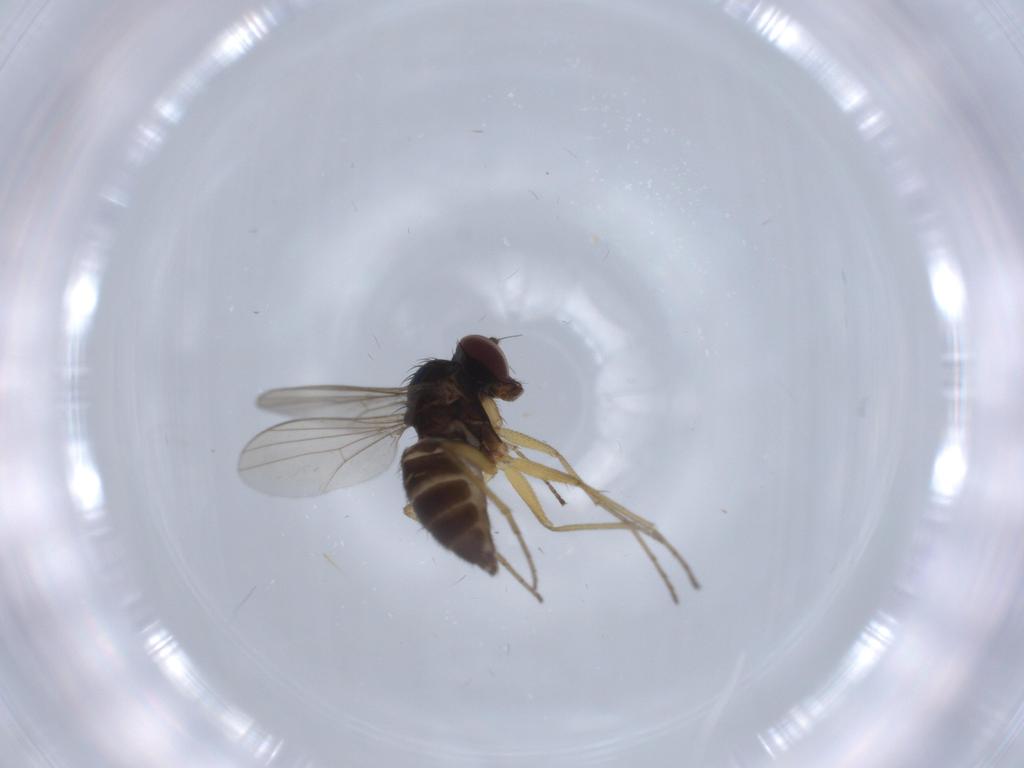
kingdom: Animalia
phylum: Arthropoda
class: Insecta
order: Diptera
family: Dolichopodidae
